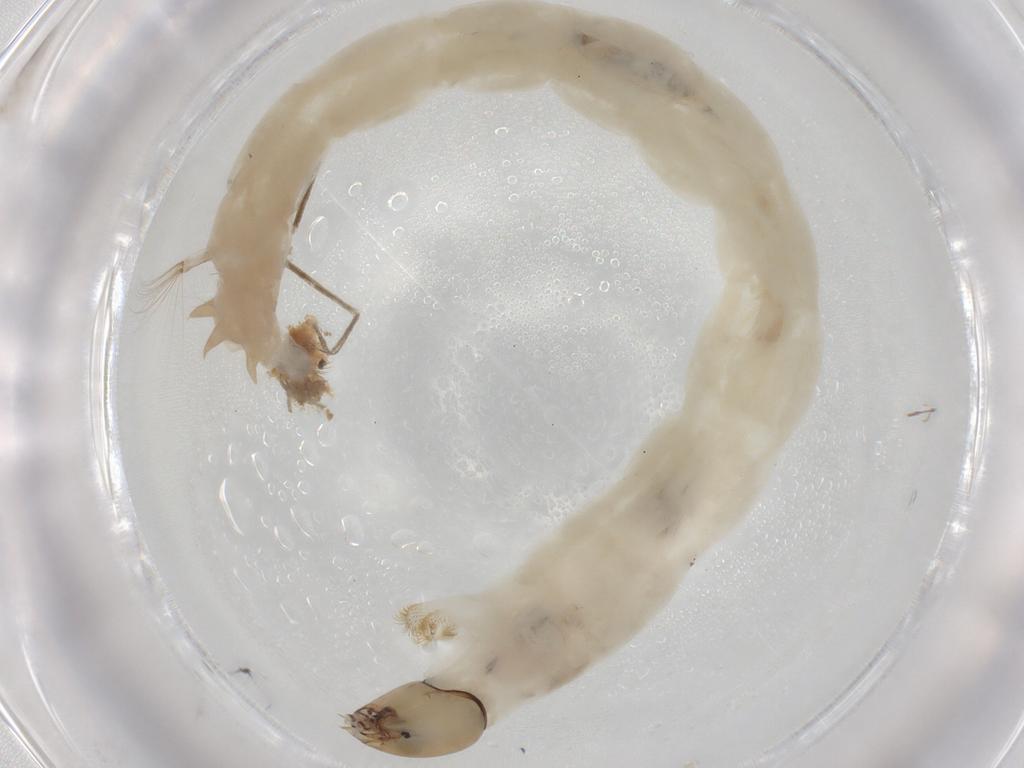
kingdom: Animalia
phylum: Arthropoda
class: Insecta
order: Diptera
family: Chironomidae
